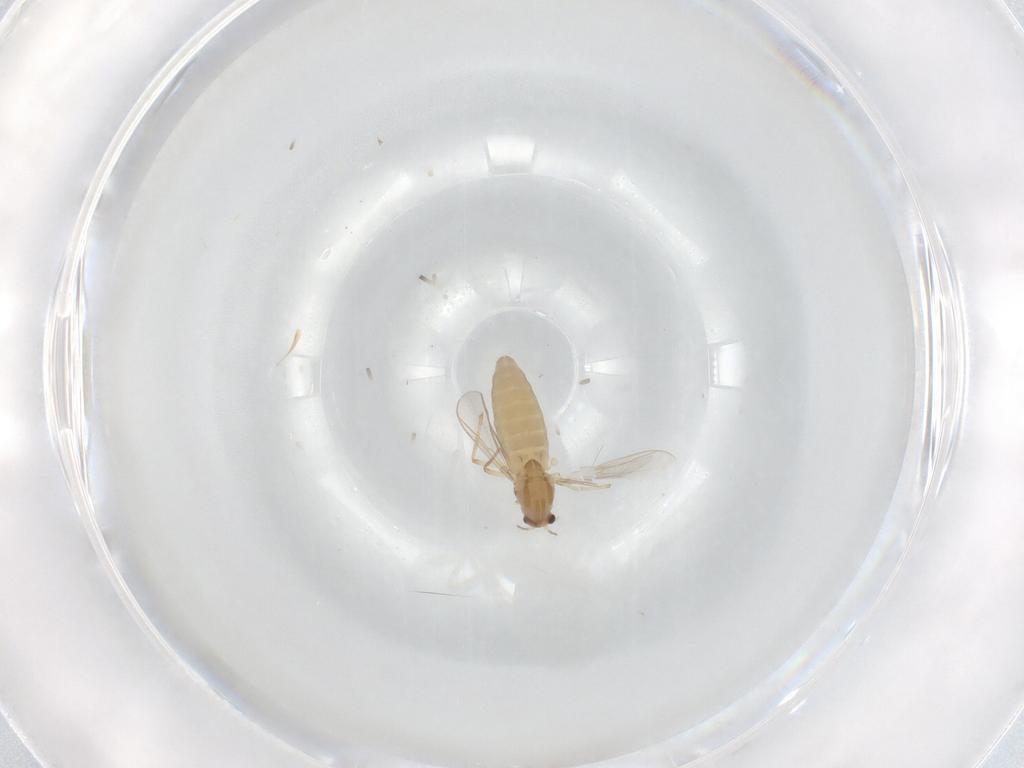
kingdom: Animalia
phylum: Arthropoda
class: Insecta
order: Diptera
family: Chironomidae
